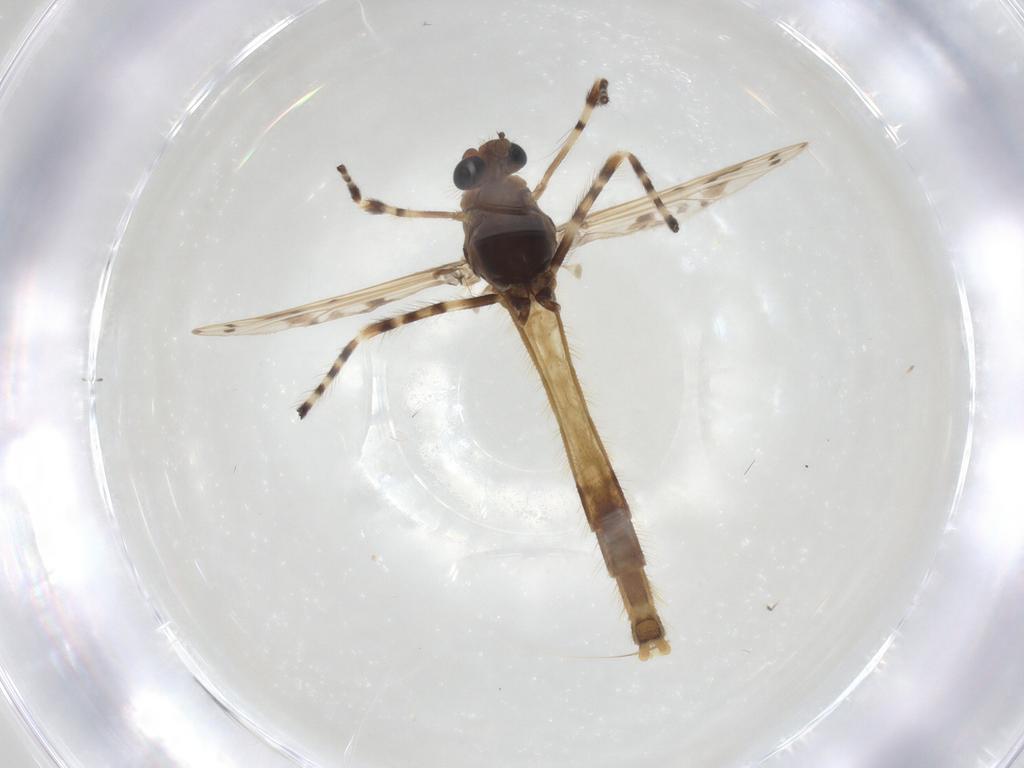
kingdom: Animalia
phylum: Arthropoda
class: Insecta
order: Diptera
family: Chironomidae
